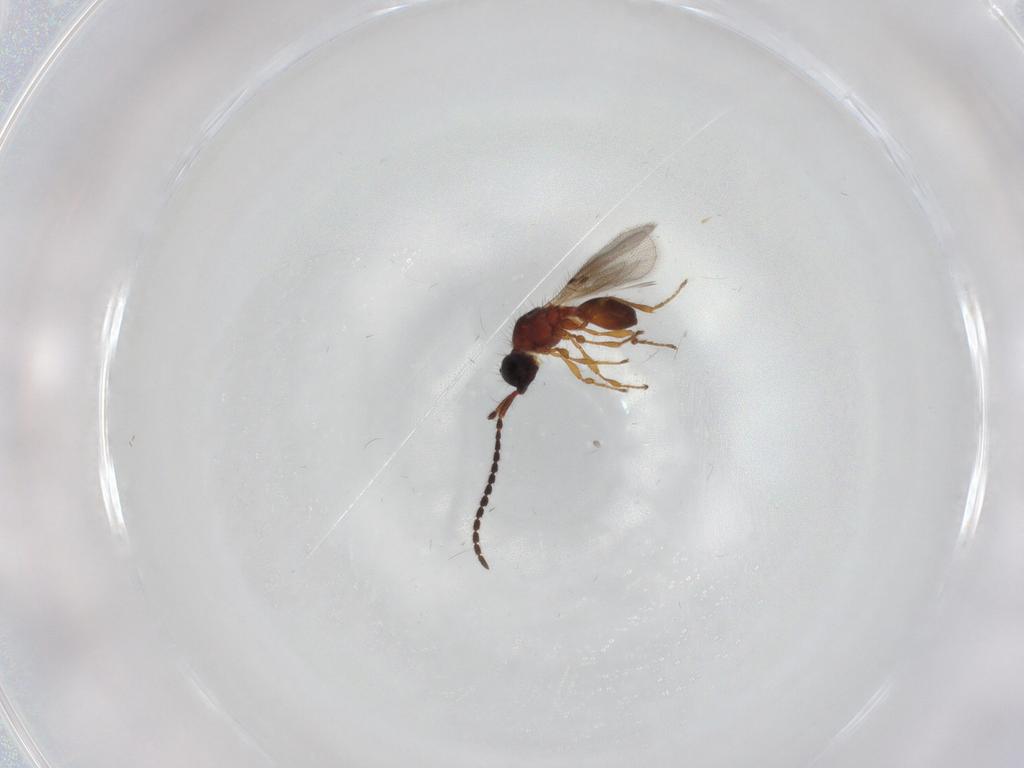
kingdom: Animalia
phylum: Arthropoda
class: Insecta
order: Hymenoptera
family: Diapriidae
